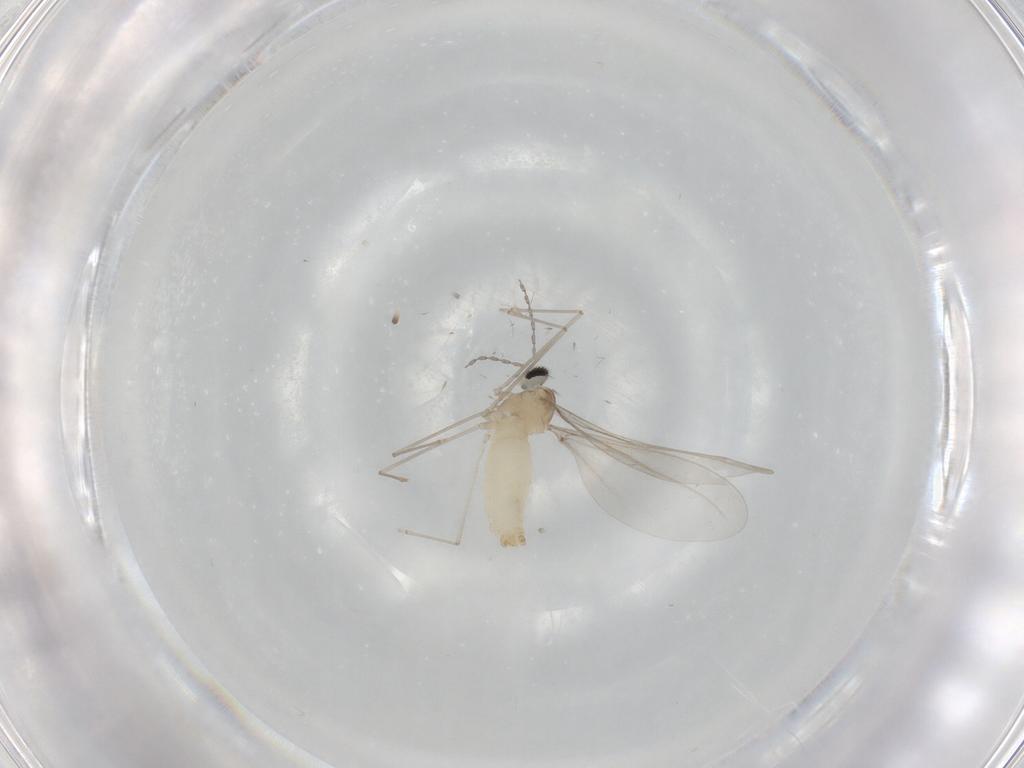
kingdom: Animalia
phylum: Arthropoda
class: Insecta
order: Diptera
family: Cecidomyiidae
